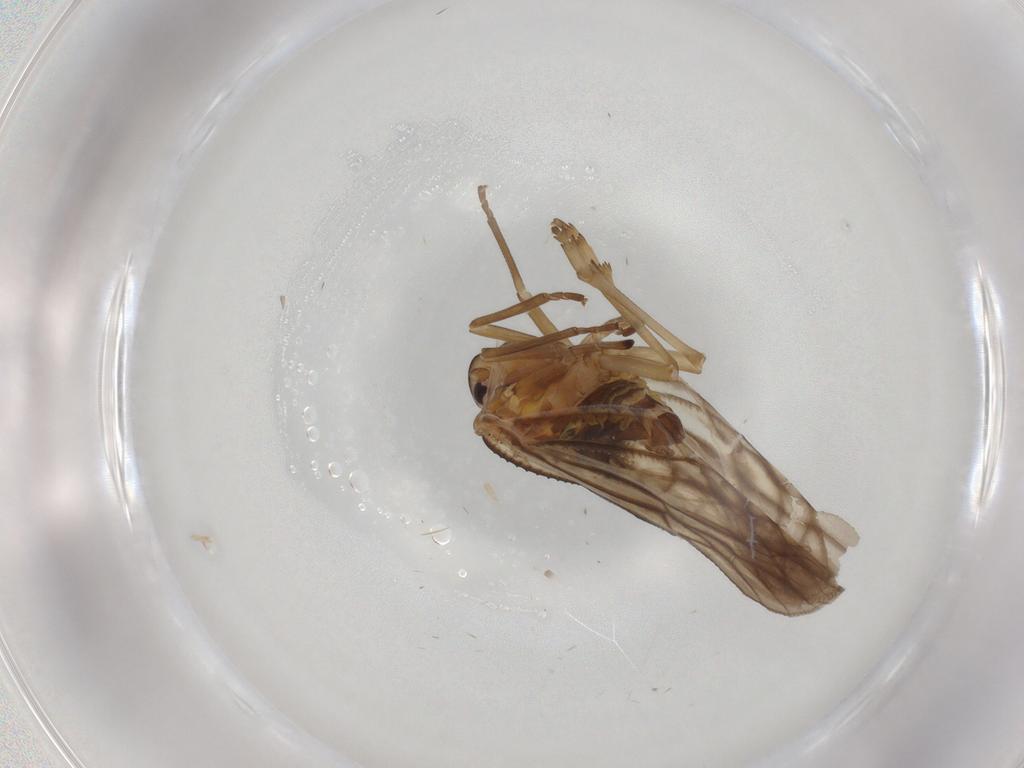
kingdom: Animalia
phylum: Arthropoda
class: Insecta
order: Hemiptera
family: Meenoplidae
